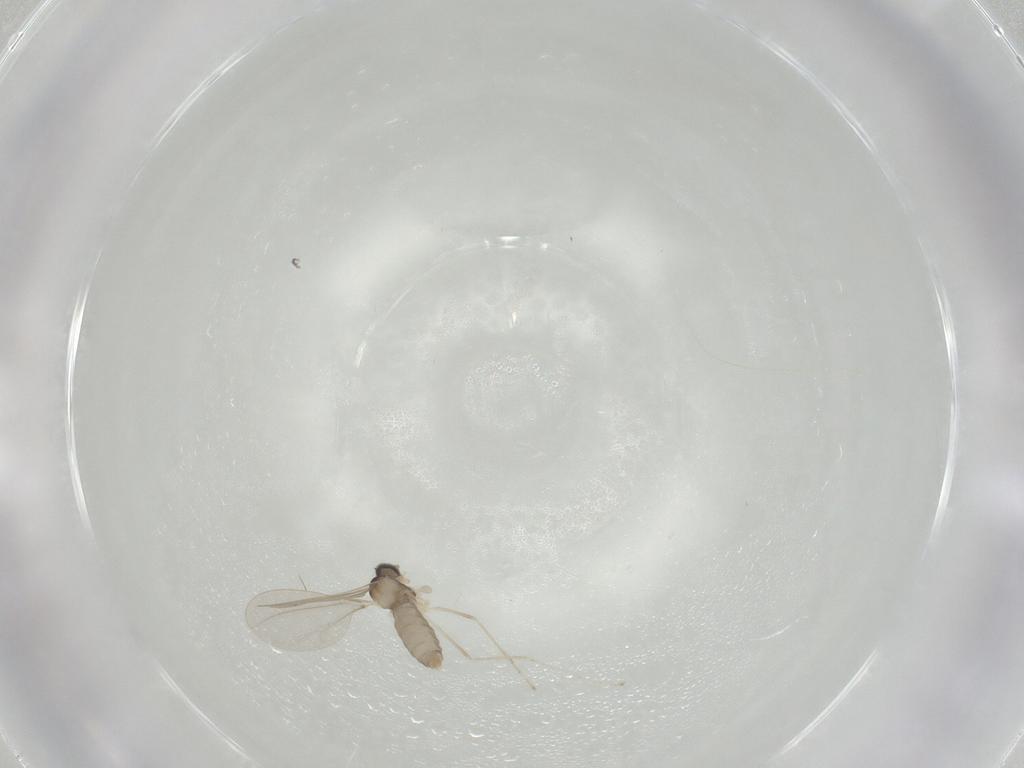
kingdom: Animalia
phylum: Arthropoda
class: Insecta
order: Diptera
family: Cecidomyiidae
